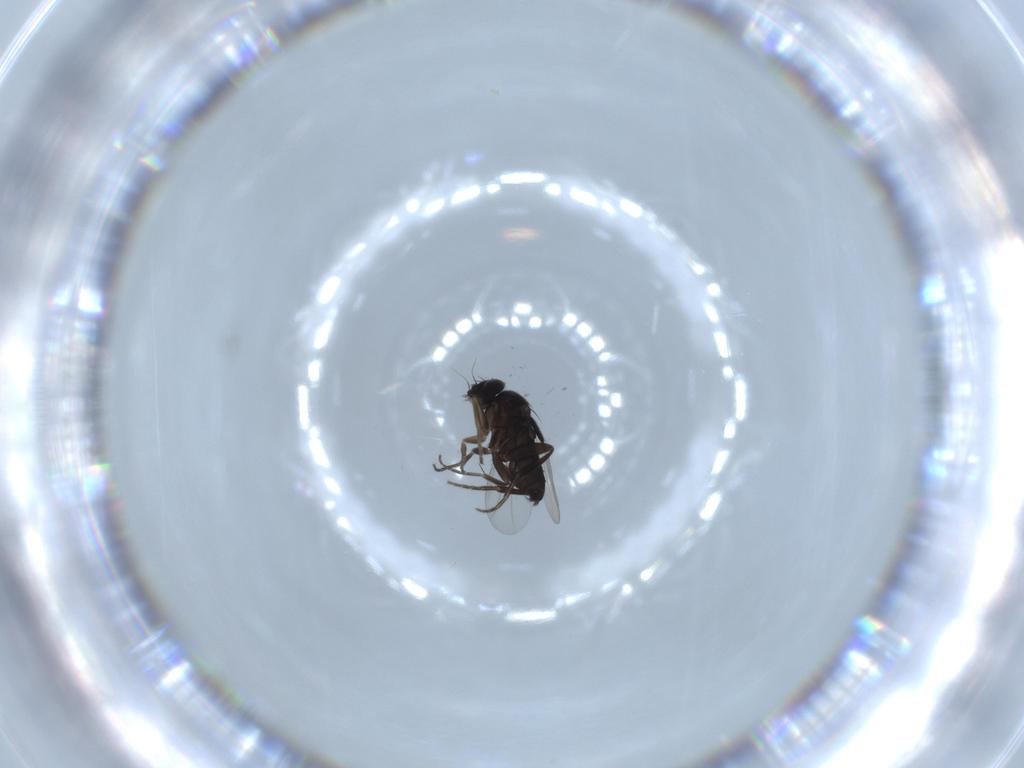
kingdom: Animalia
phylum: Arthropoda
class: Insecta
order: Diptera
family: Phoridae
